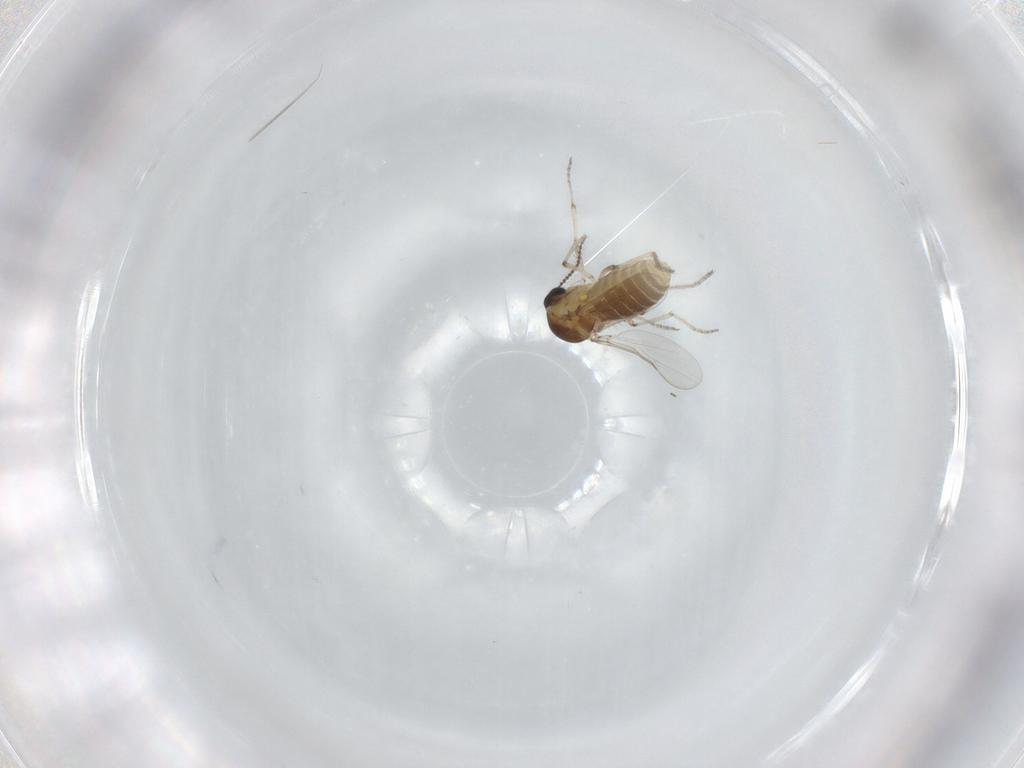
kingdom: Animalia
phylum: Arthropoda
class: Insecta
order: Diptera
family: Ceratopogonidae
